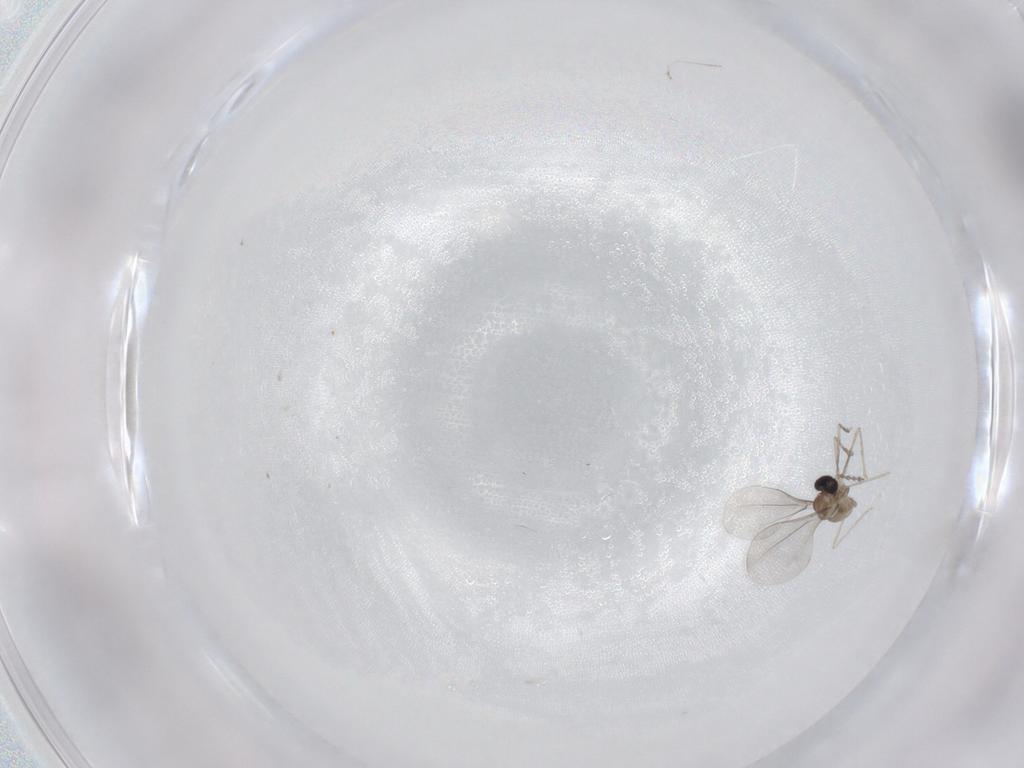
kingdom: Animalia
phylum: Arthropoda
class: Insecta
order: Diptera
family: Cecidomyiidae
